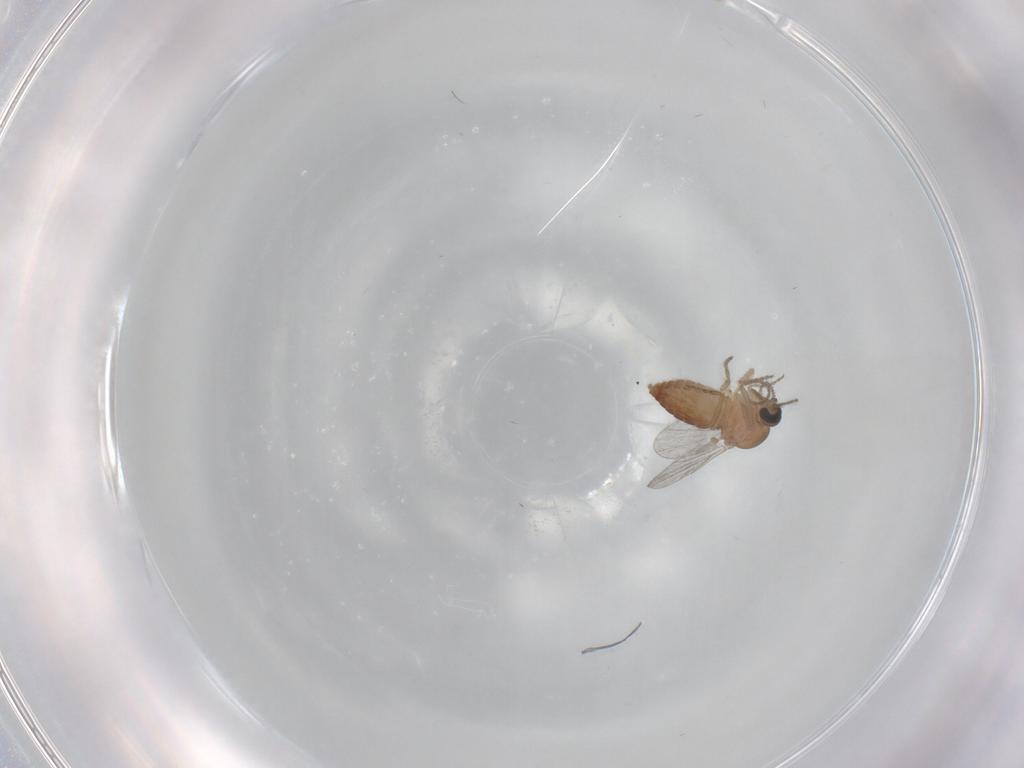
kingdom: Animalia
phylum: Arthropoda
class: Insecta
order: Diptera
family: Ceratopogonidae
